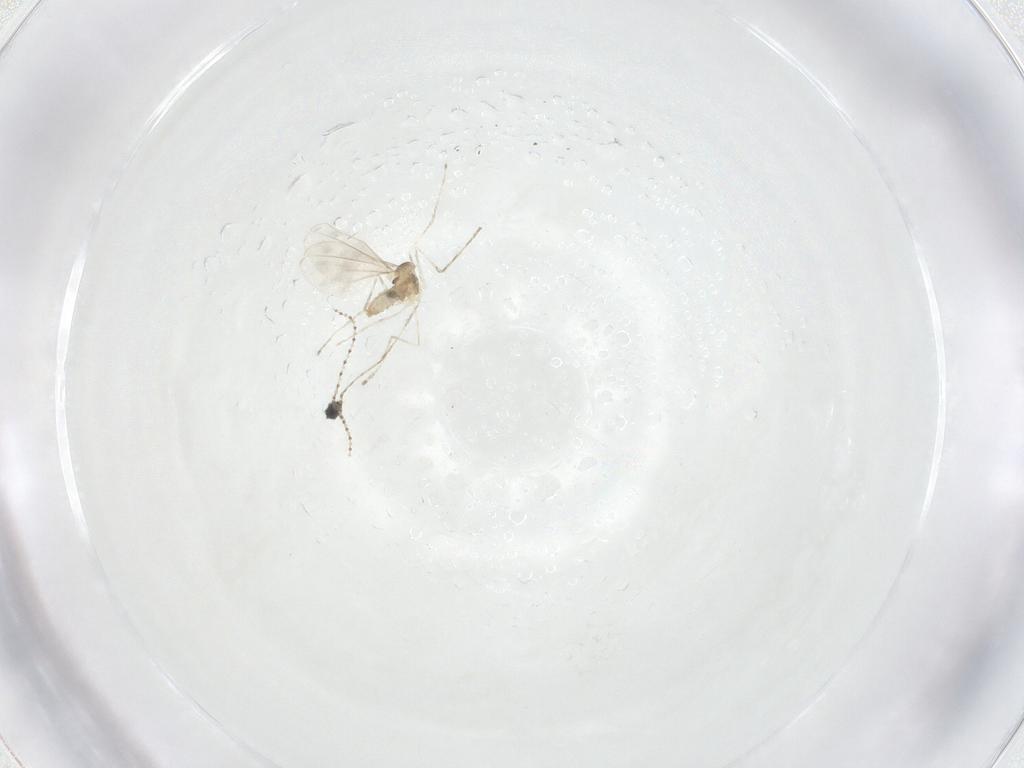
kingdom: Animalia
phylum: Arthropoda
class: Insecta
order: Diptera
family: Cecidomyiidae
